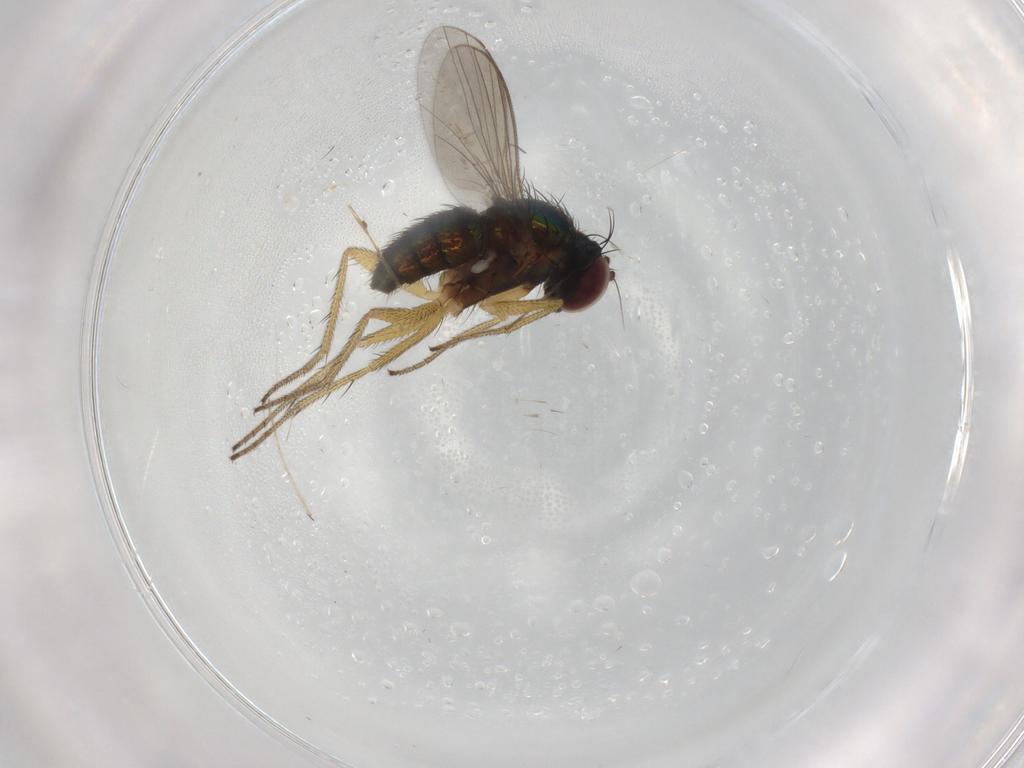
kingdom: Animalia
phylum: Arthropoda
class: Insecta
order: Diptera
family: Chironomidae
